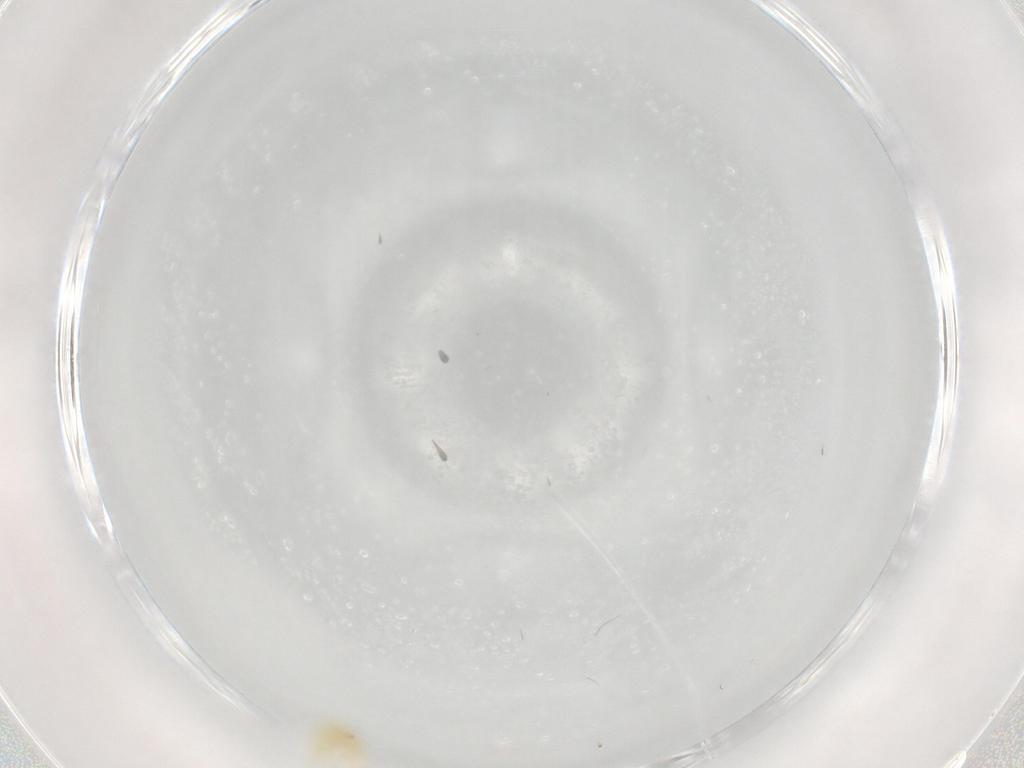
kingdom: Animalia
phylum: Arthropoda
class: Insecta
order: Hemiptera
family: Aleyrodidae
